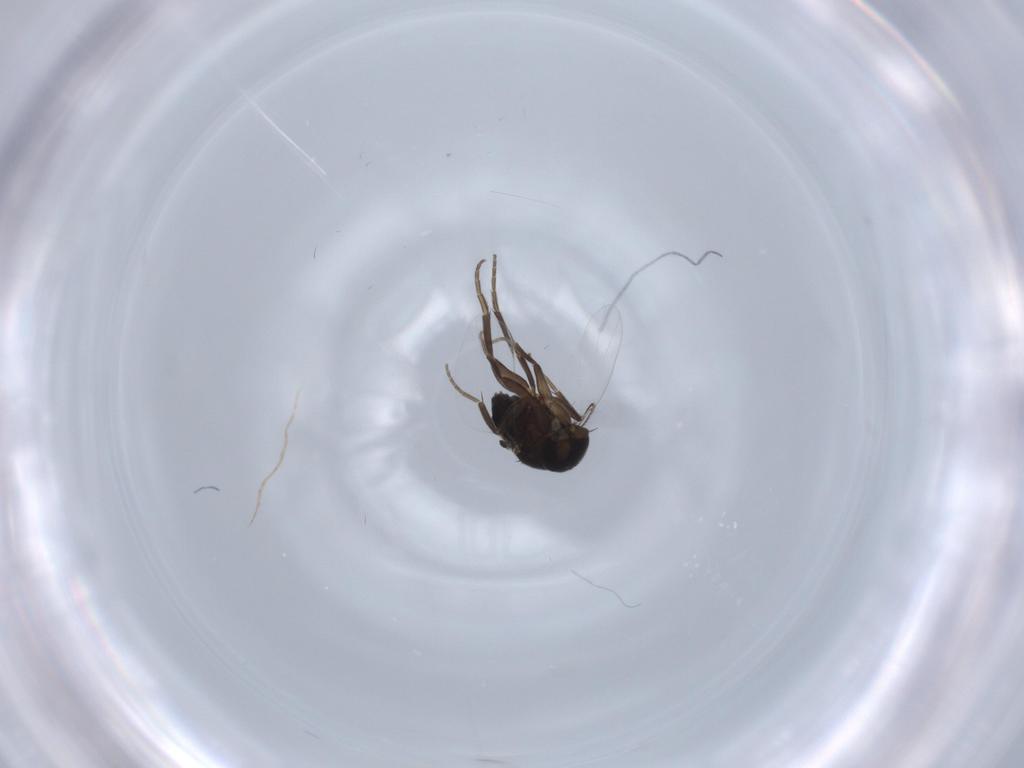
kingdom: Animalia
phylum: Arthropoda
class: Insecta
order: Diptera
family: Phoridae
